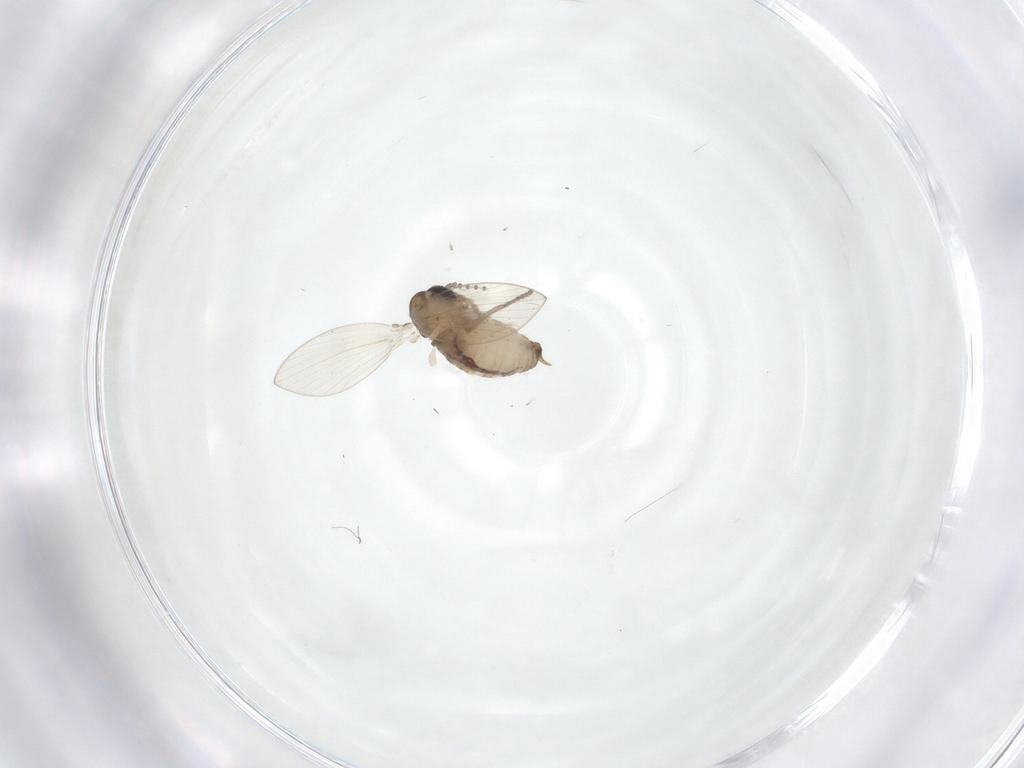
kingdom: Animalia
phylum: Arthropoda
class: Insecta
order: Diptera
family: Psychodidae
